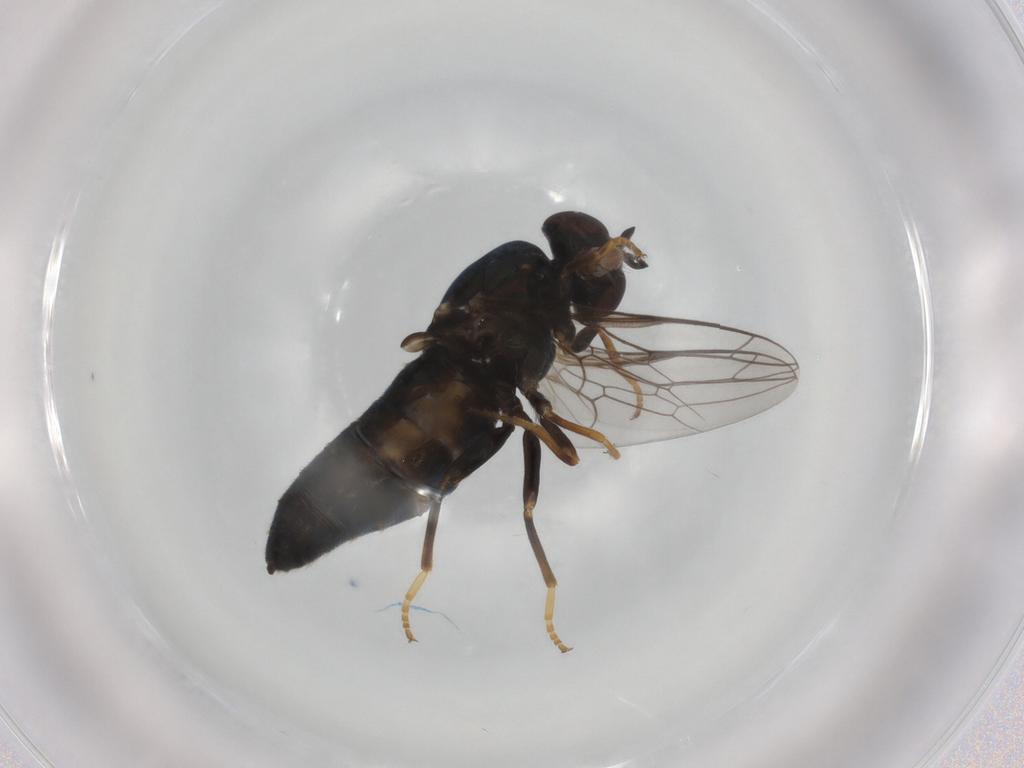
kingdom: Animalia
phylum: Arthropoda
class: Insecta
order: Diptera
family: Scenopinidae
